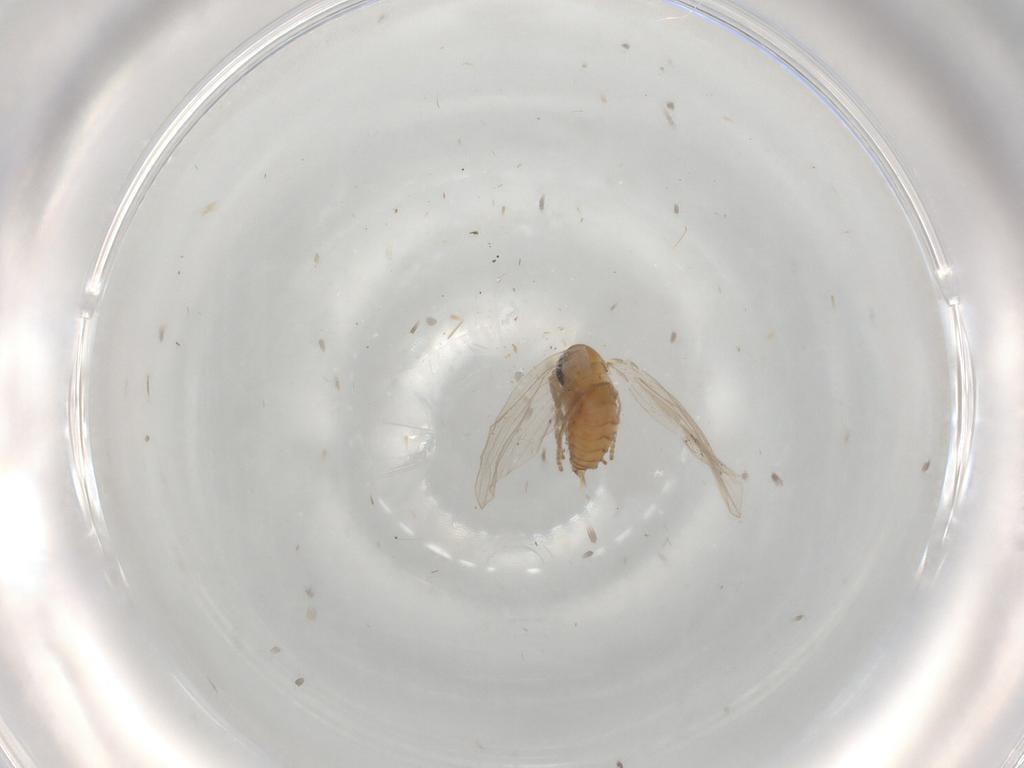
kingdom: Animalia
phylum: Arthropoda
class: Insecta
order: Diptera
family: Psychodidae
